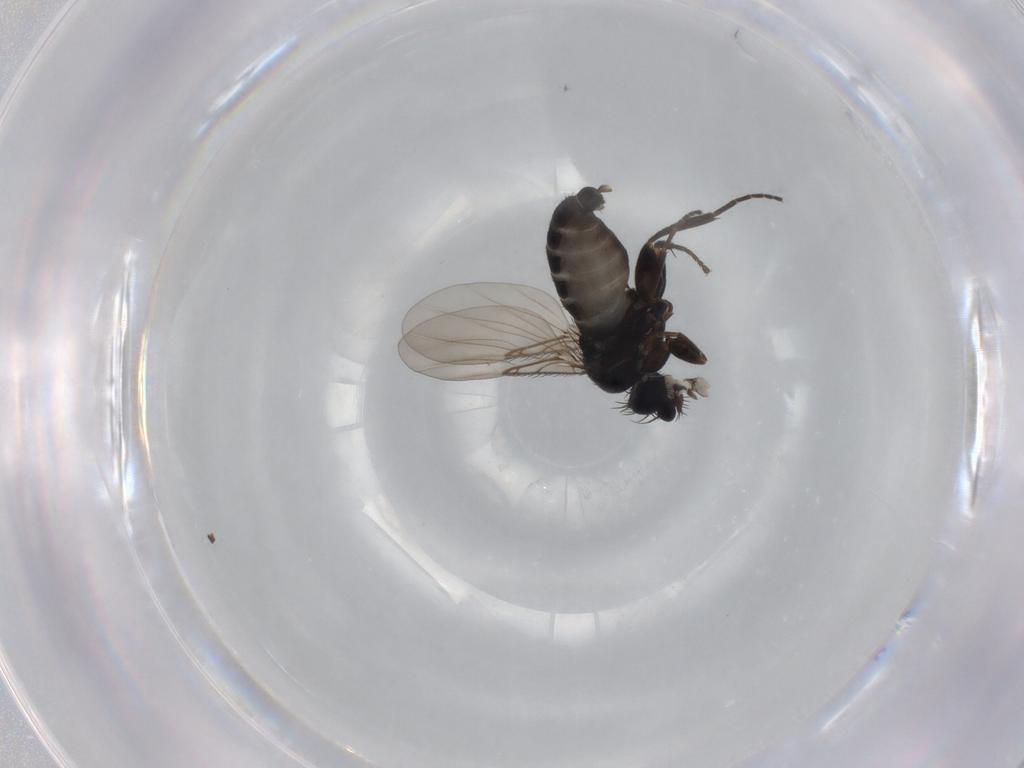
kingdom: Animalia
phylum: Arthropoda
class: Insecta
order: Diptera
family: Phoridae
